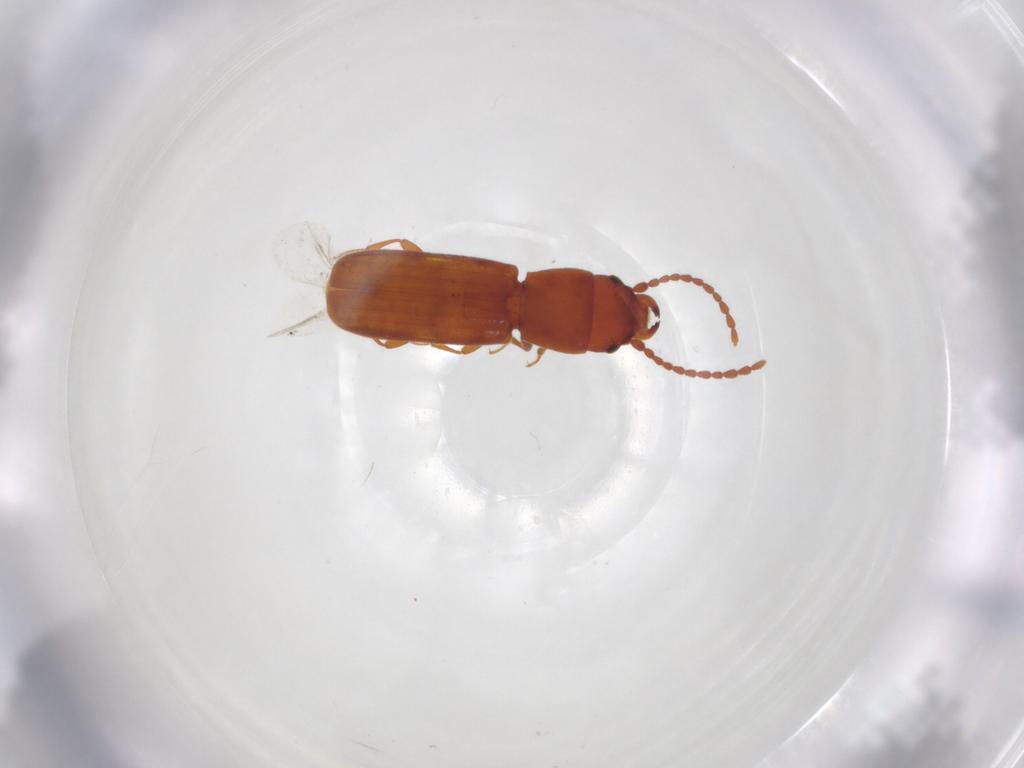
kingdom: Animalia
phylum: Arthropoda
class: Insecta
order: Coleoptera
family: Laemophloeidae
